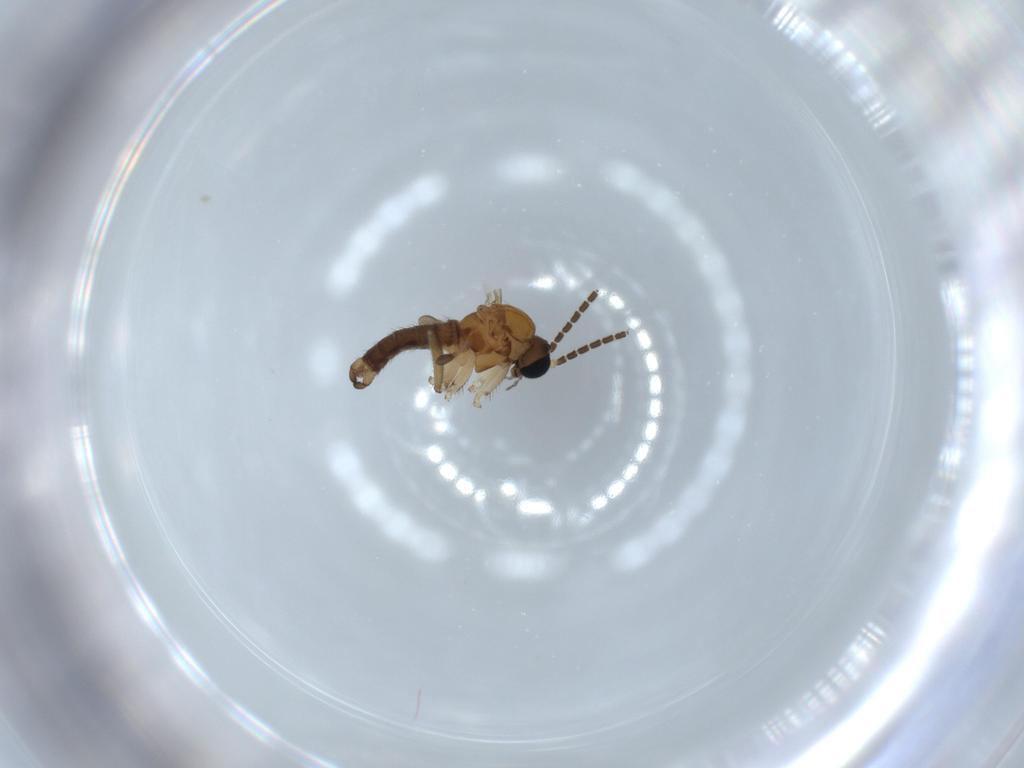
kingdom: Animalia
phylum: Arthropoda
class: Insecta
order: Diptera
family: Sciaridae
